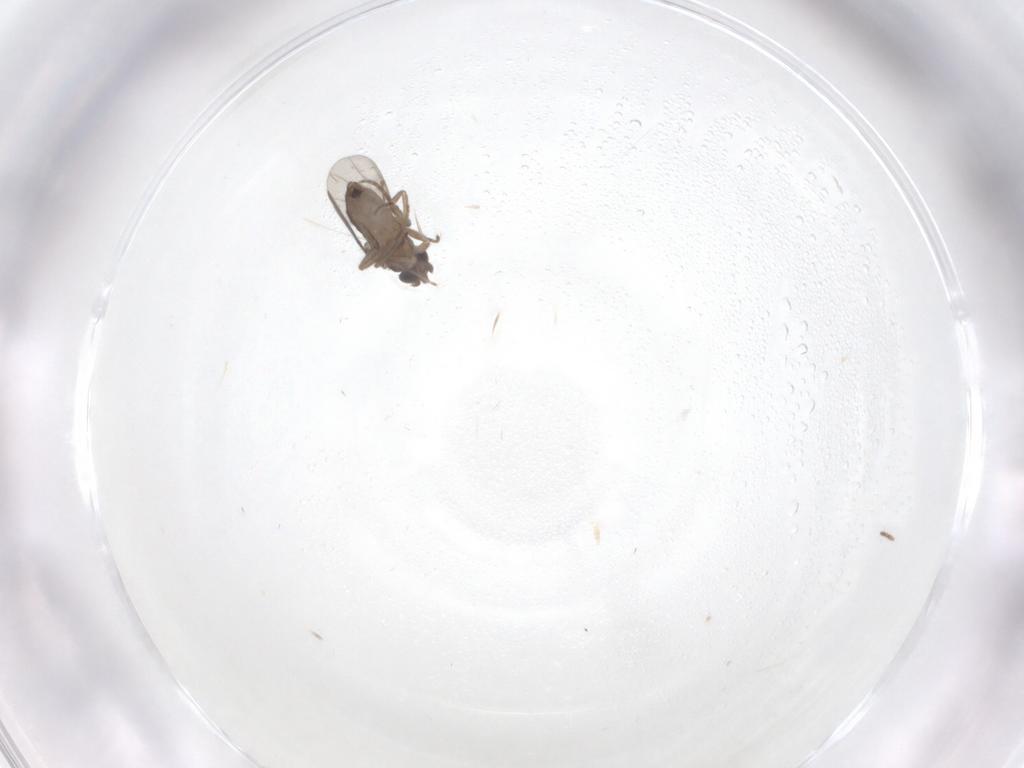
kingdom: Animalia
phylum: Arthropoda
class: Insecta
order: Diptera
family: Ceratopogonidae
